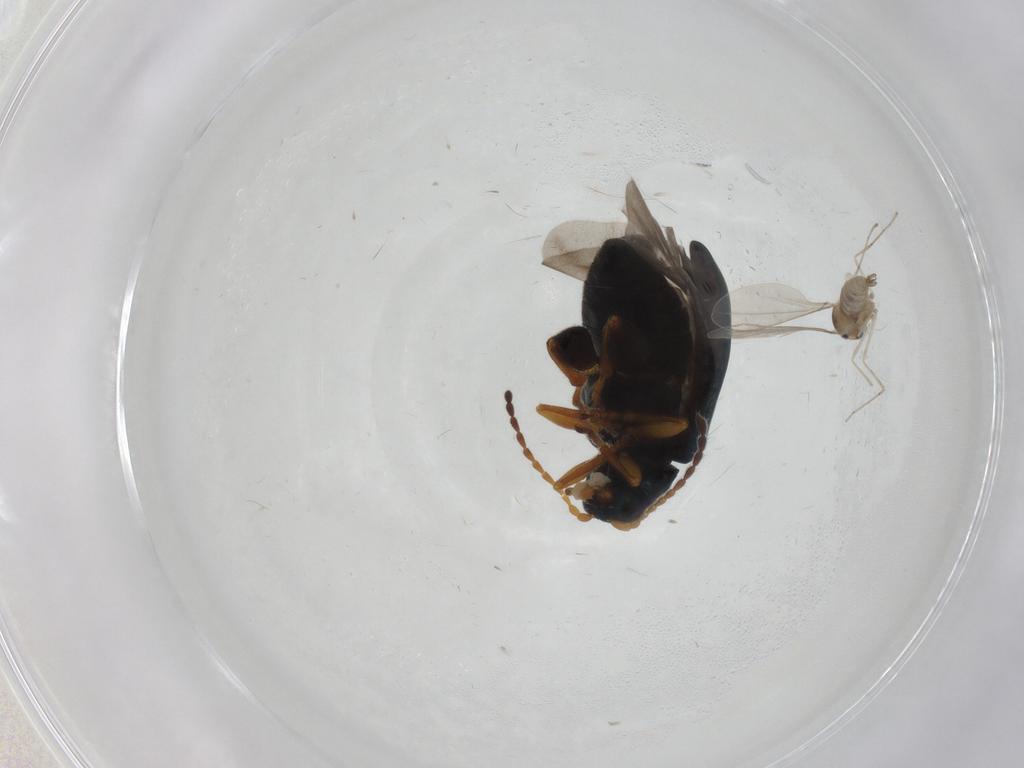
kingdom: Animalia
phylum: Arthropoda
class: Insecta
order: Coleoptera
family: Chrysomelidae
